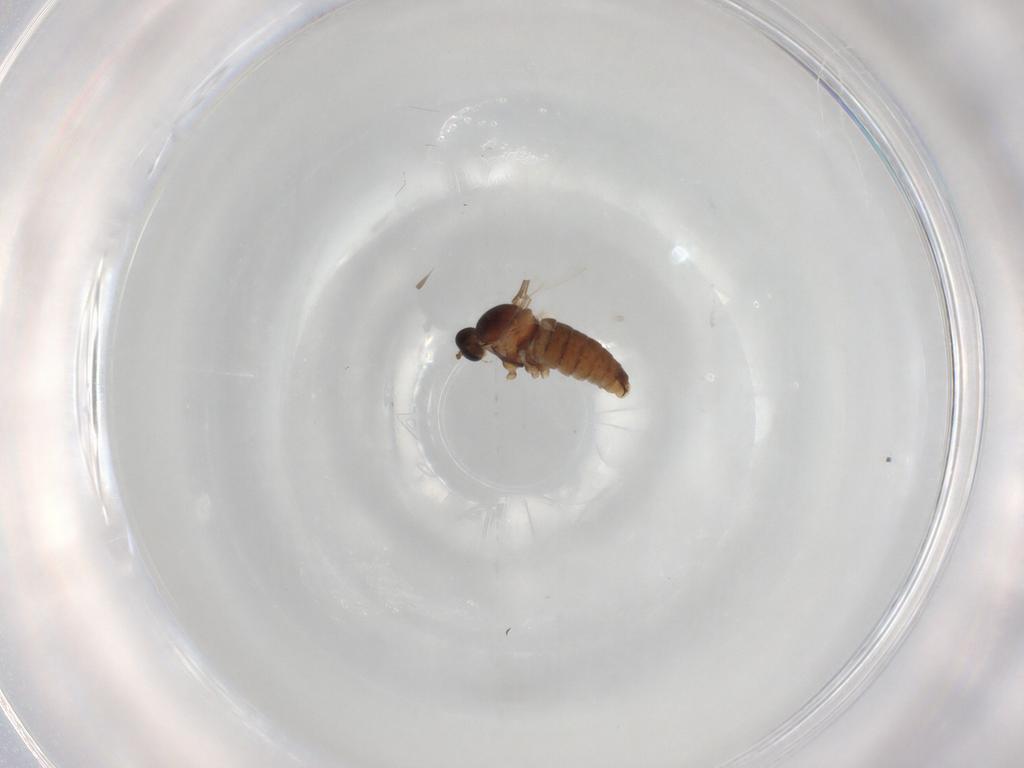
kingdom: Animalia
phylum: Arthropoda
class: Insecta
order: Diptera
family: Cecidomyiidae
